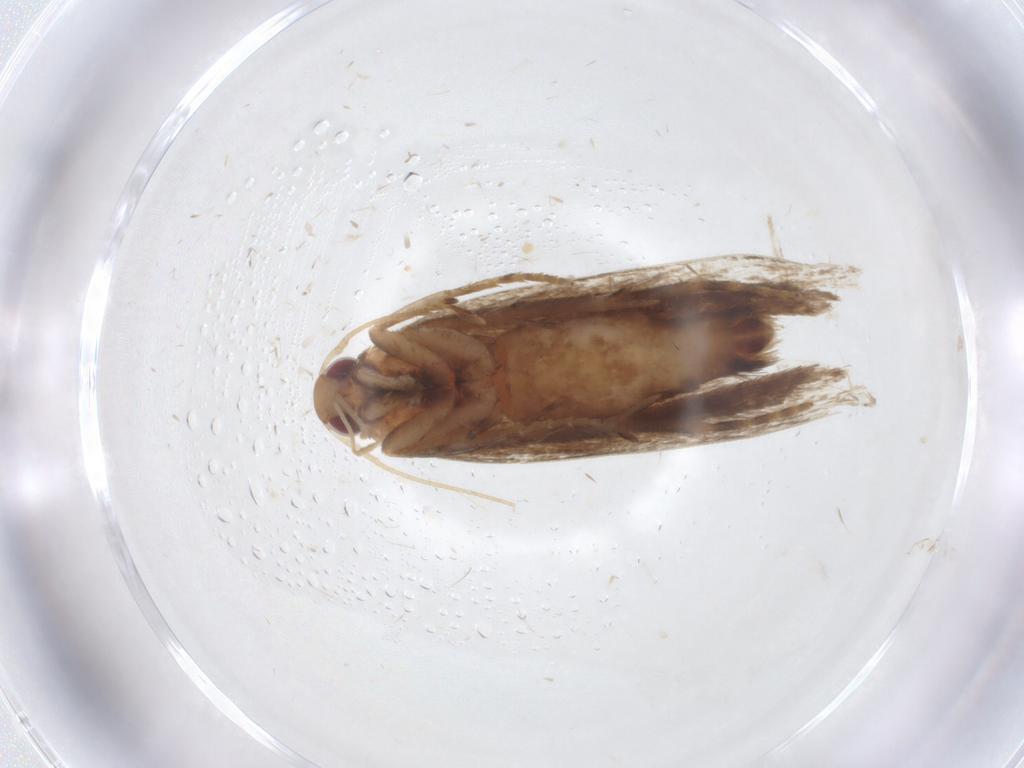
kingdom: Animalia
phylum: Arthropoda
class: Insecta
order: Lepidoptera
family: Gelechiidae
